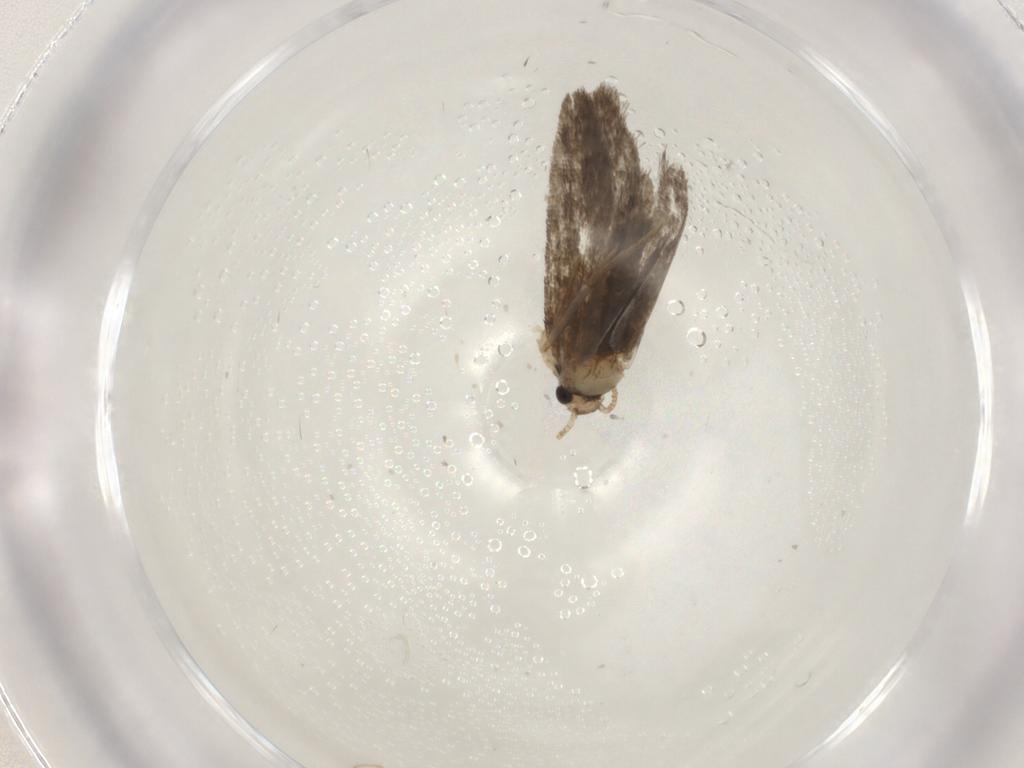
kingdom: Animalia
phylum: Arthropoda
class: Insecta
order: Lepidoptera
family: Psychidae
